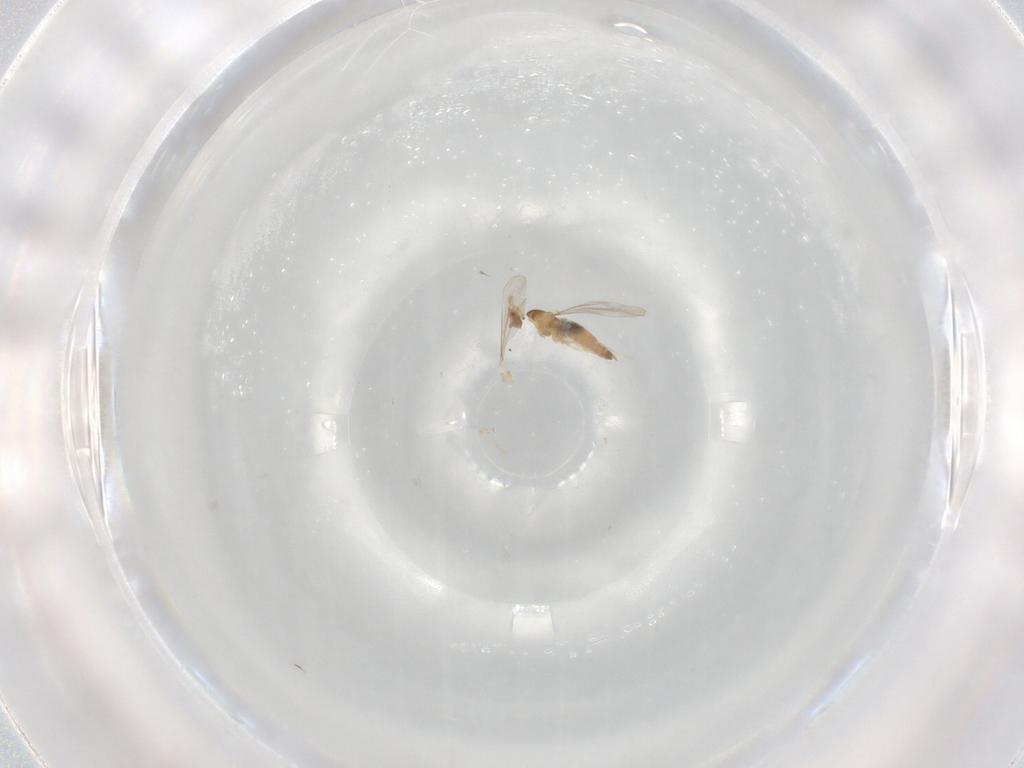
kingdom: Animalia
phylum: Arthropoda
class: Insecta
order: Diptera
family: Cecidomyiidae
